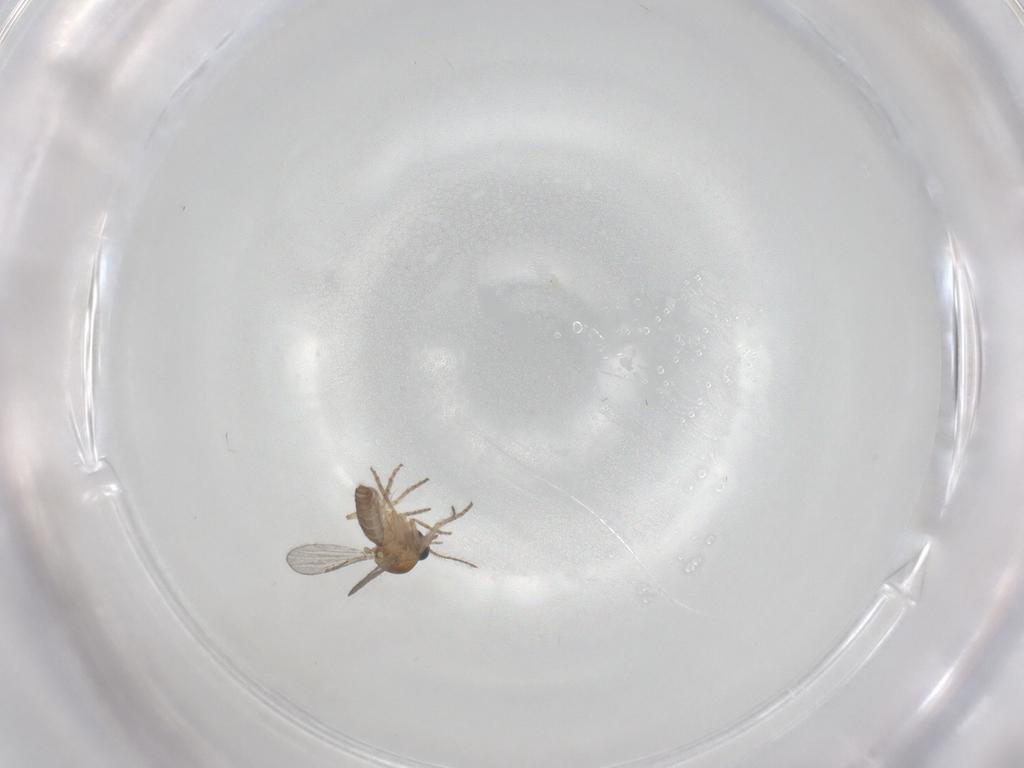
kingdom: Animalia
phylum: Arthropoda
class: Insecta
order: Diptera
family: Ceratopogonidae
